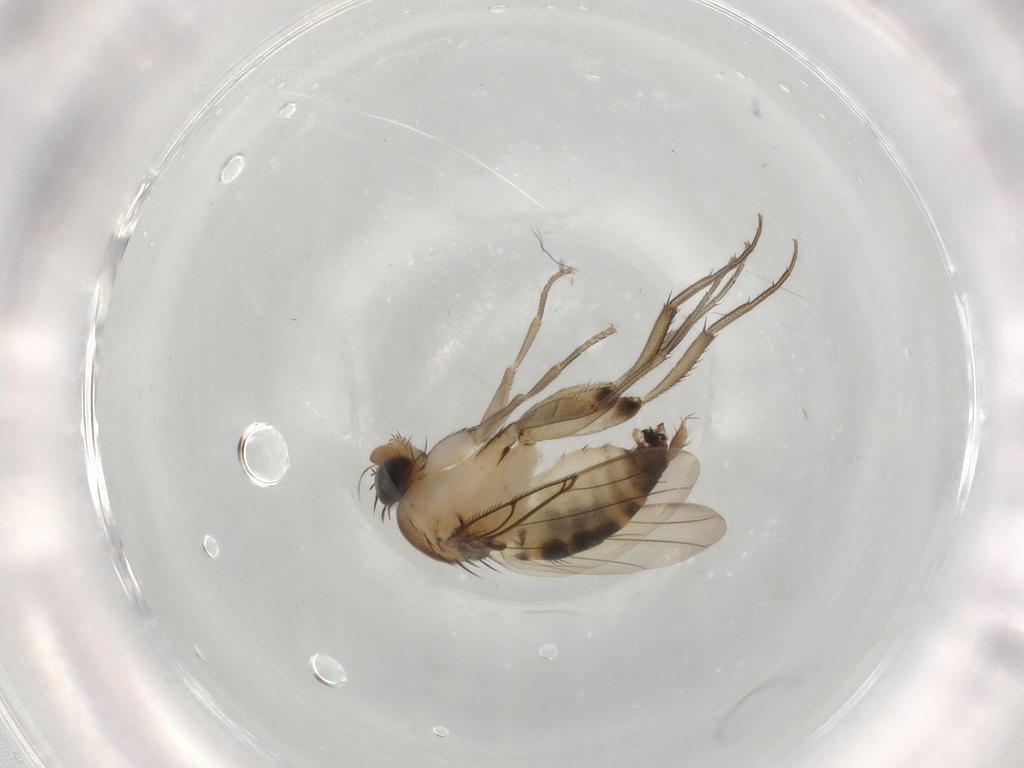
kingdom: Animalia
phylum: Arthropoda
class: Insecta
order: Diptera
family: Phoridae
